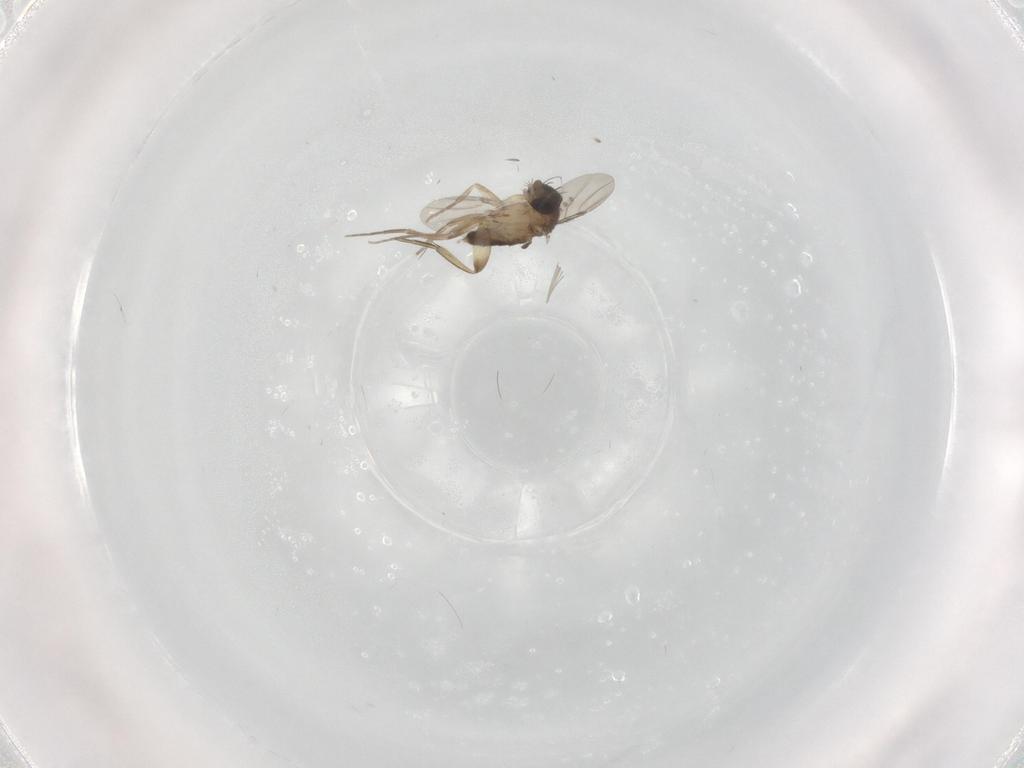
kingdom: Animalia
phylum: Arthropoda
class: Insecta
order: Diptera
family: Phoridae
